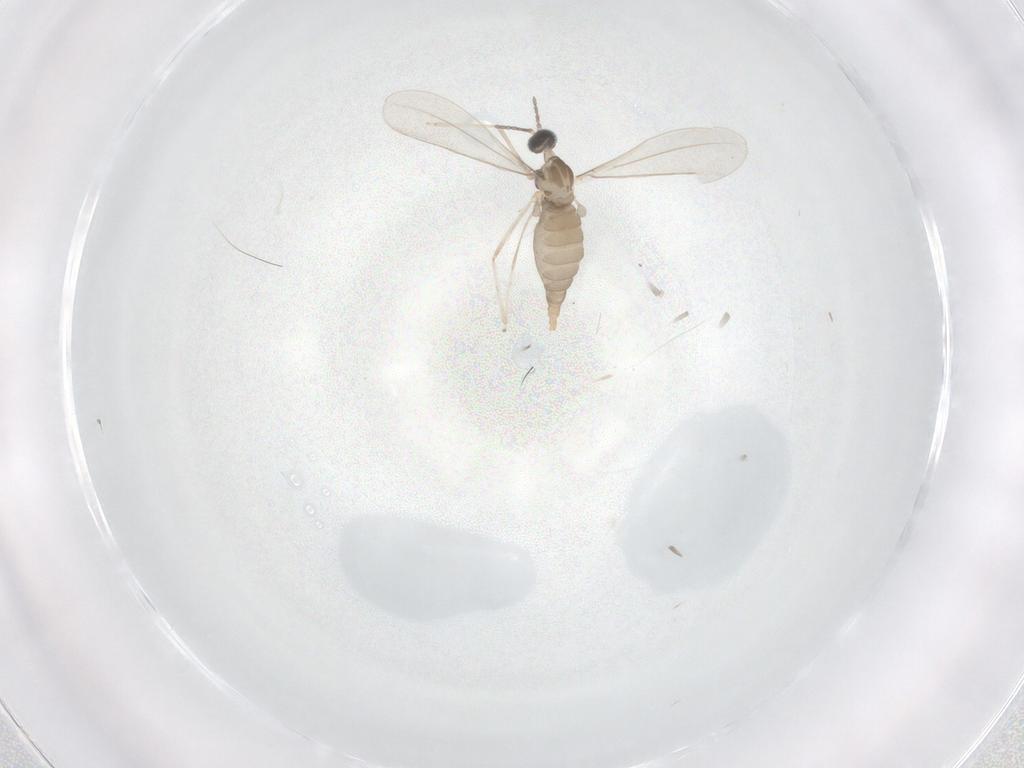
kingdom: Animalia
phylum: Arthropoda
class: Insecta
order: Diptera
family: Cecidomyiidae
